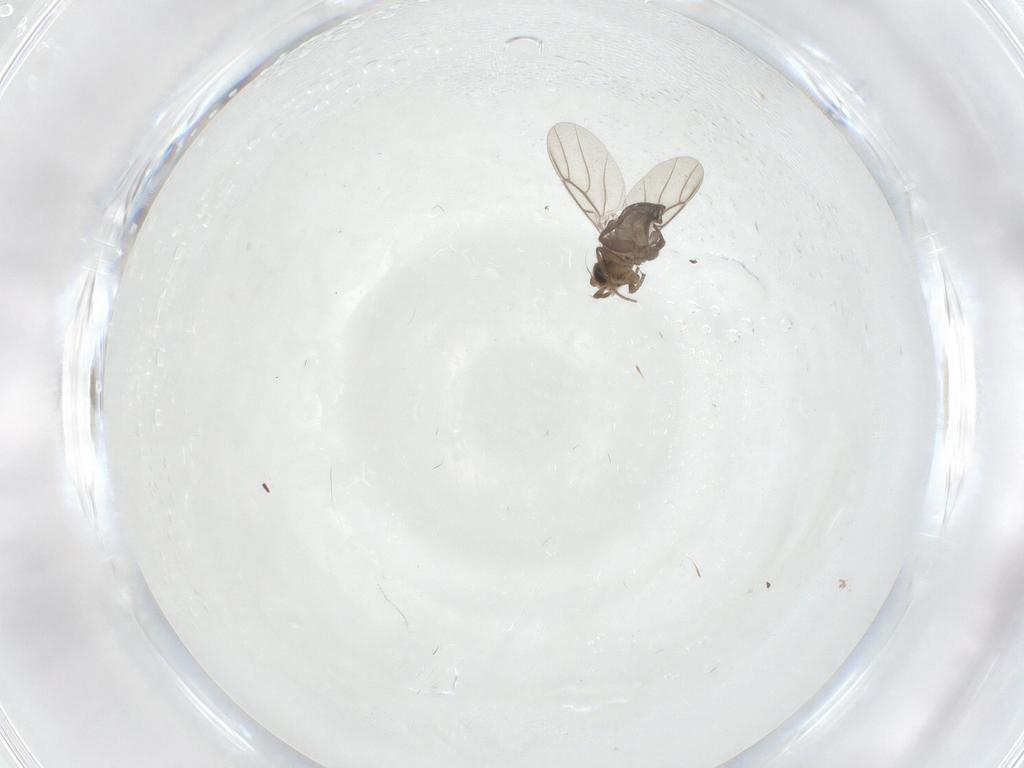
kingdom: Animalia
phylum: Arthropoda
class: Insecta
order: Diptera
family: Phoridae
